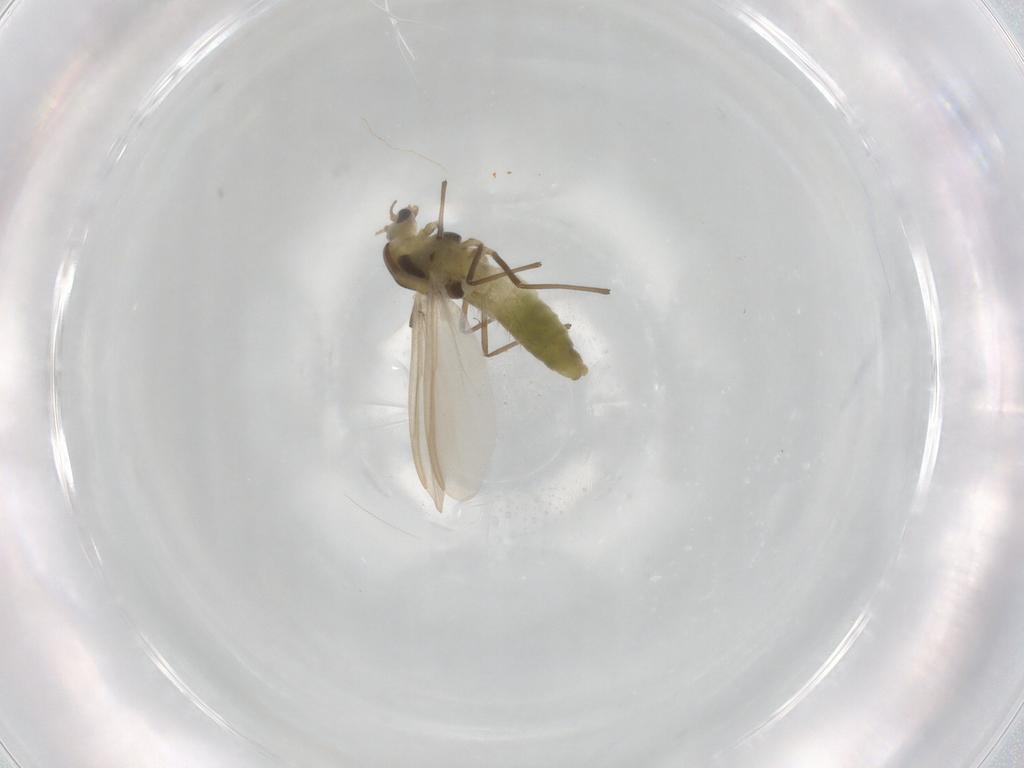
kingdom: Animalia
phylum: Arthropoda
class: Insecta
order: Diptera
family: Chironomidae
